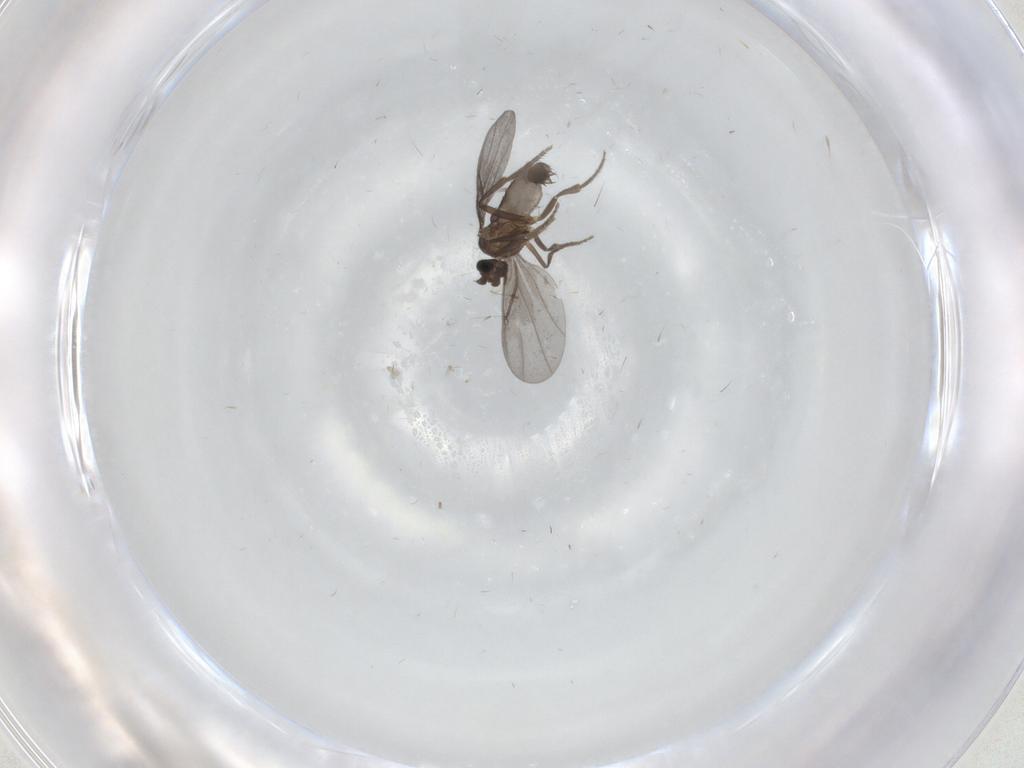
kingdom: Animalia
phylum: Arthropoda
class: Insecta
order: Diptera
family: Phoridae
